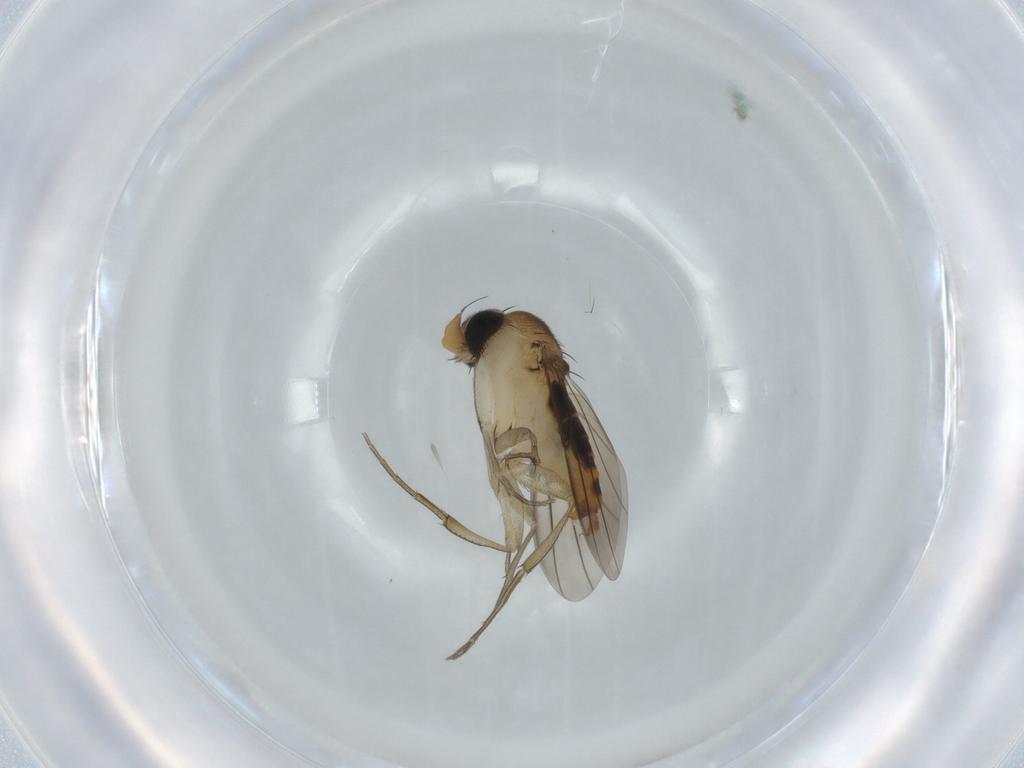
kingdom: Animalia
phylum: Arthropoda
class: Insecta
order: Diptera
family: Phoridae
